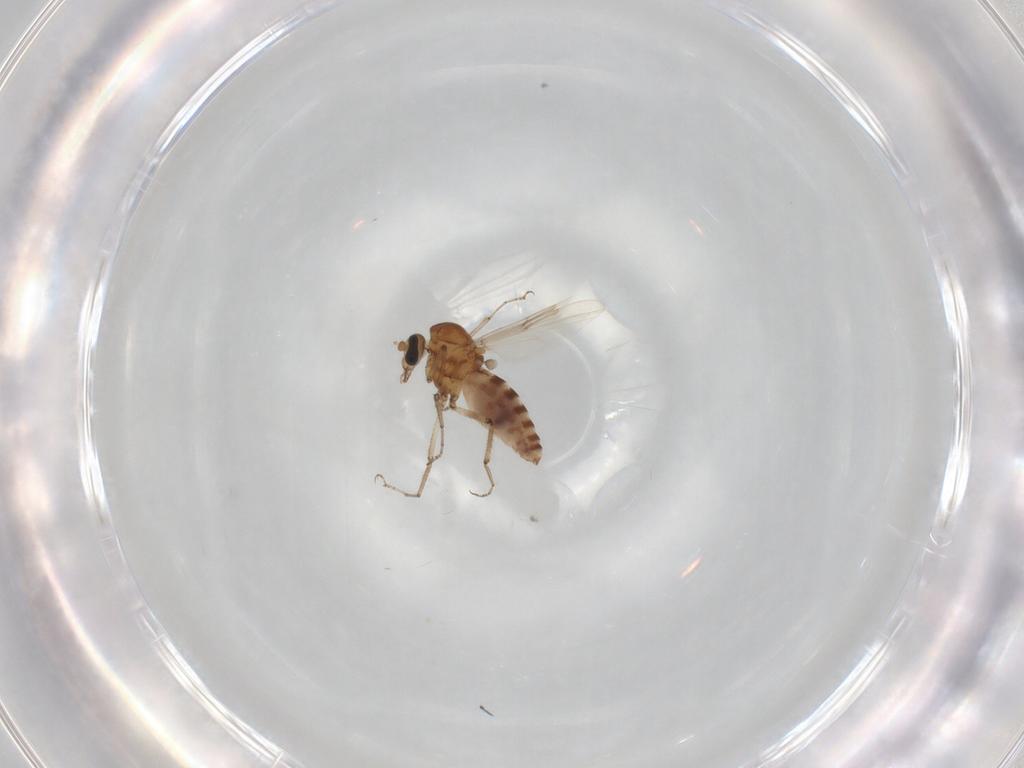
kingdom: Animalia
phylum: Arthropoda
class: Insecta
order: Diptera
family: Ceratopogonidae
